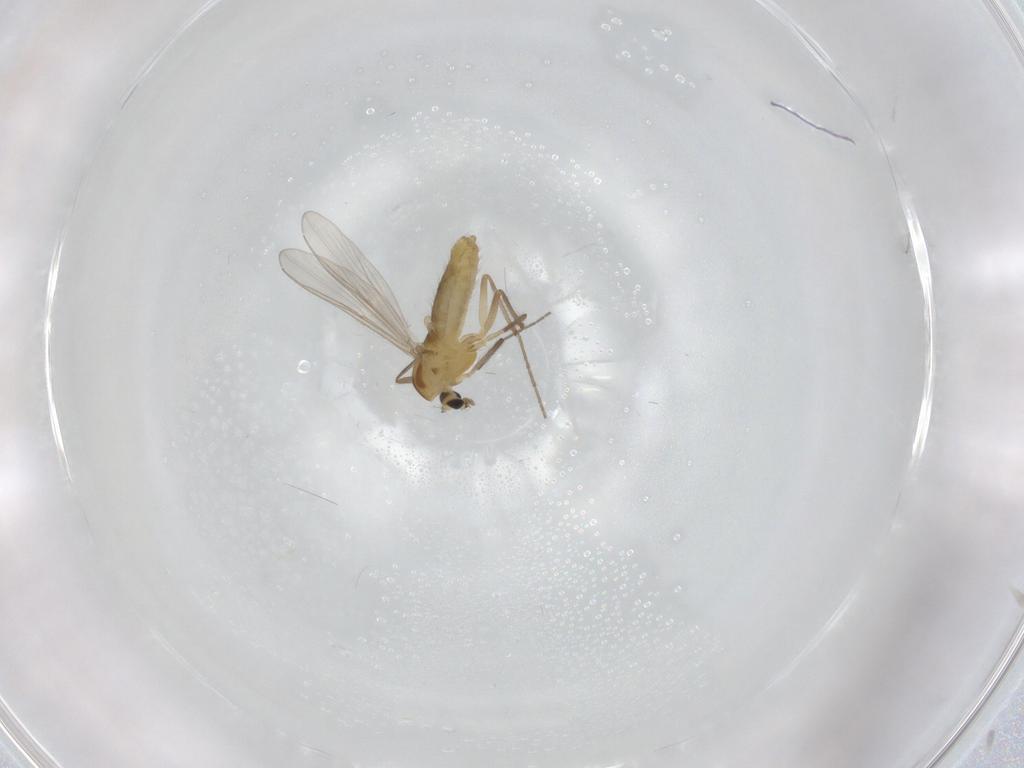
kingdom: Animalia
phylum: Arthropoda
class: Insecta
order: Diptera
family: Chironomidae
